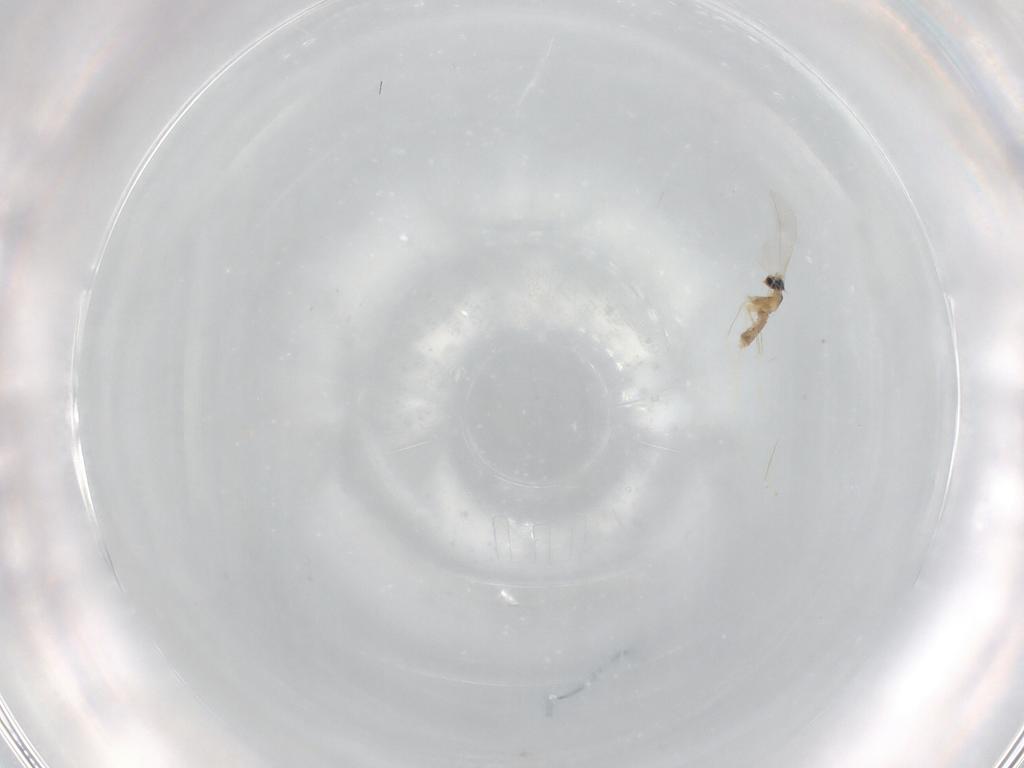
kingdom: Animalia
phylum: Arthropoda
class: Insecta
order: Diptera
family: Cecidomyiidae
